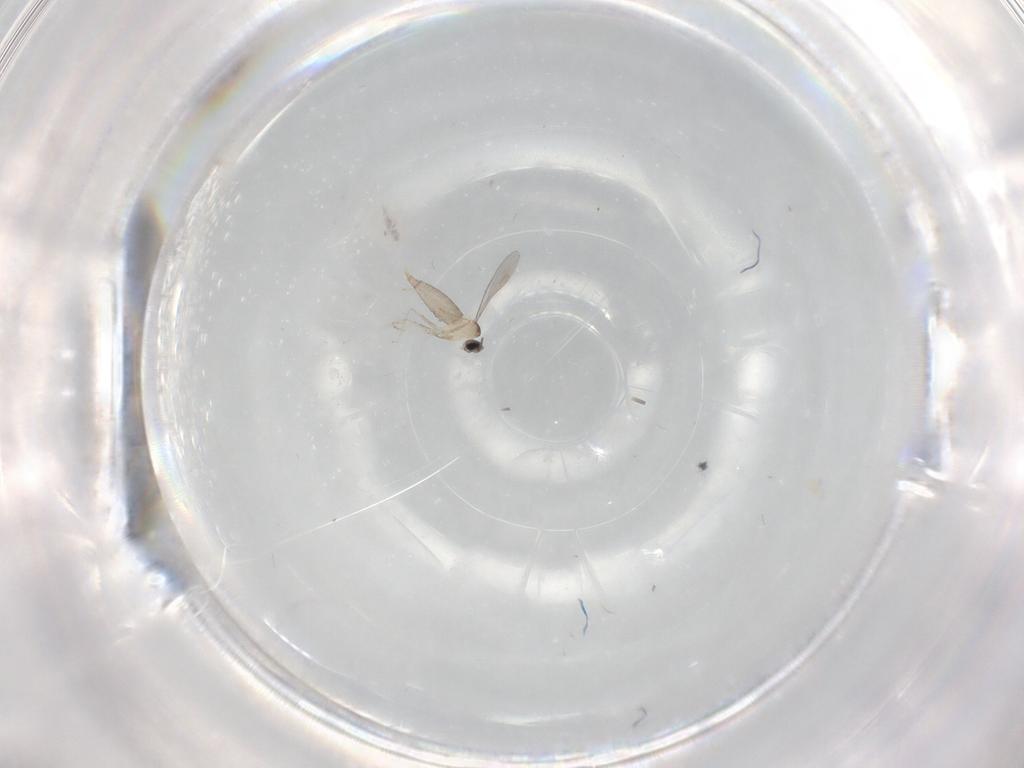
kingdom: Animalia
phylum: Arthropoda
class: Insecta
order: Diptera
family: Cecidomyiidae
